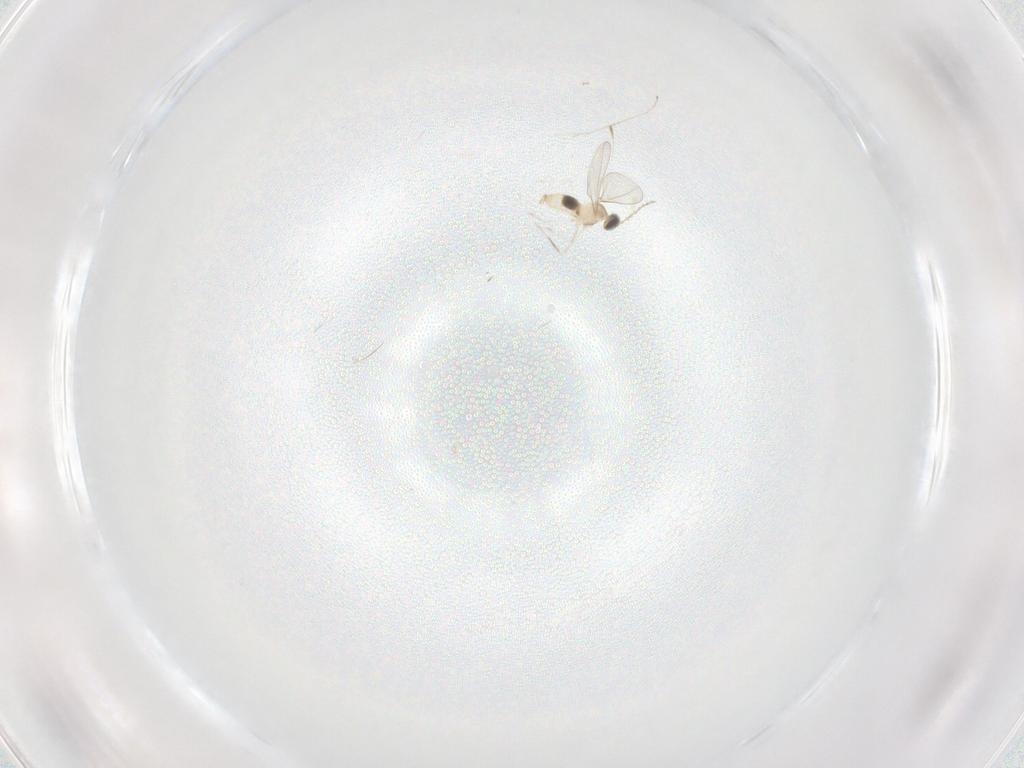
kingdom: Animalia
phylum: Arthropoda
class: Insecta
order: Diptera
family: Cecidomyiidae
